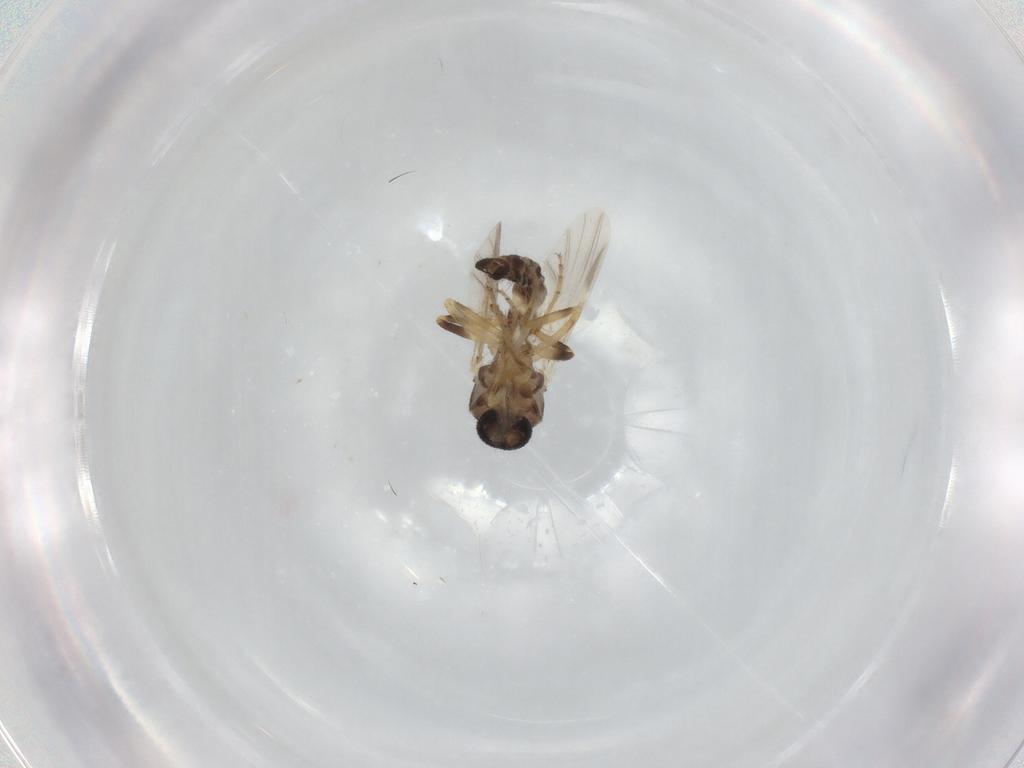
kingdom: Animalia
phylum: Arthropoda
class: Insecta
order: Diptera
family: Ceratopogonidae
